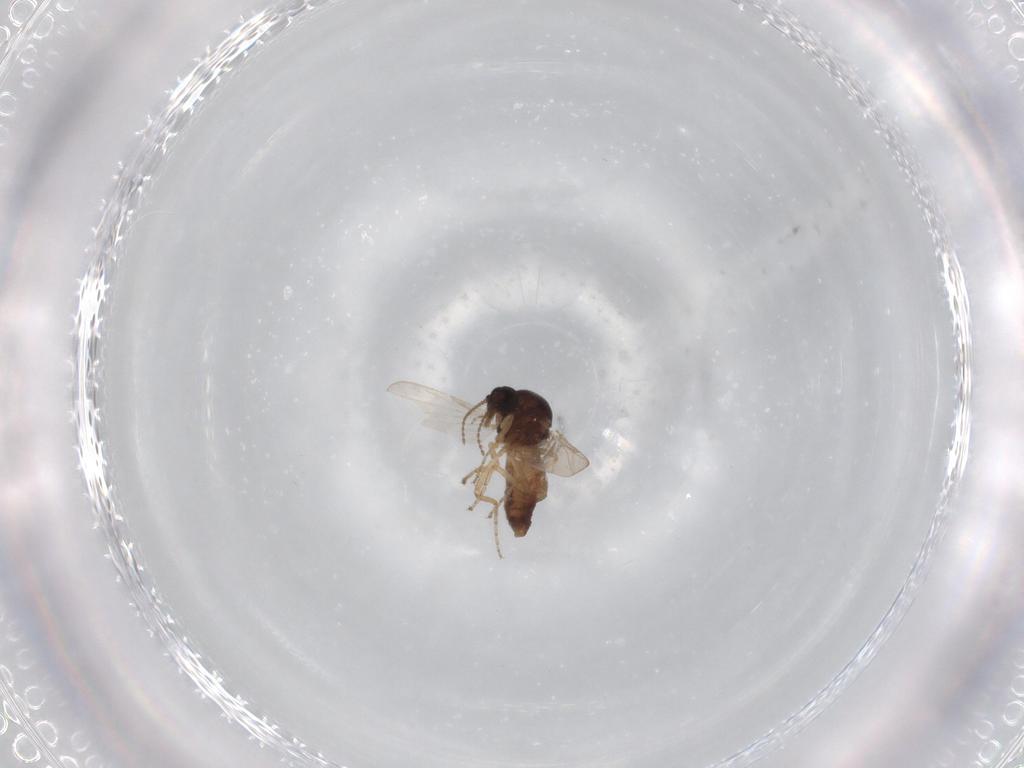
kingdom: Animalia
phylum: Arthropoda
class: Insecta
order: Diptera
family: Ceratopogonidae
